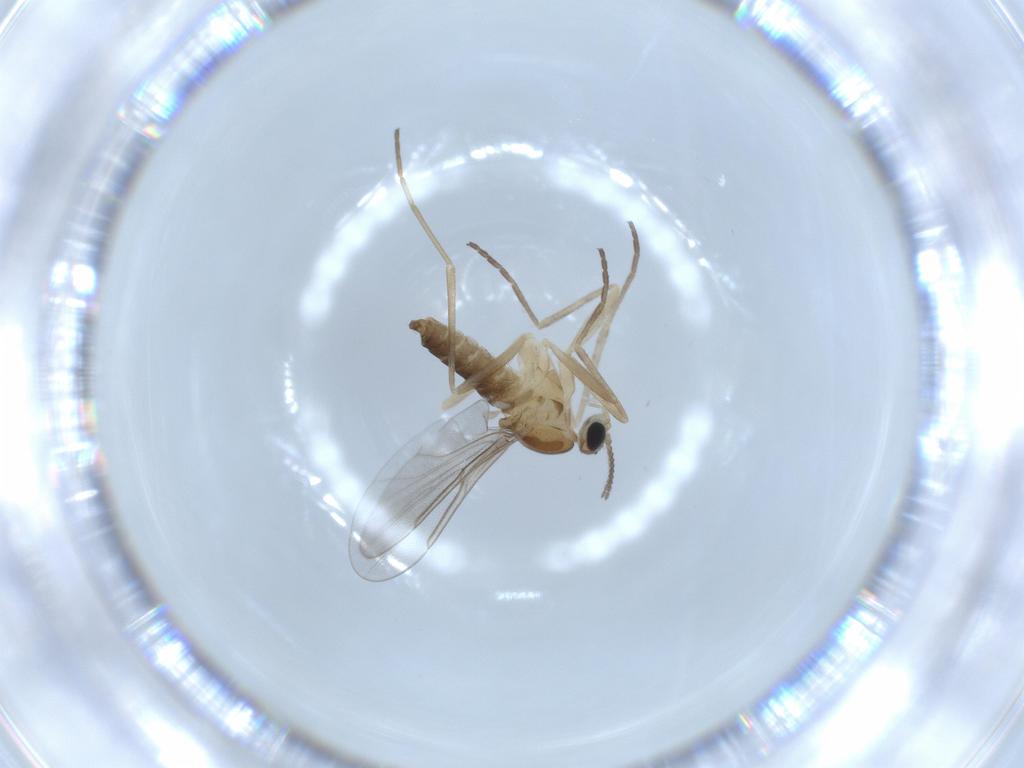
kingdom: Animalia
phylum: Arthropoda
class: Insecta
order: Diptera
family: Cecidomyiidae
